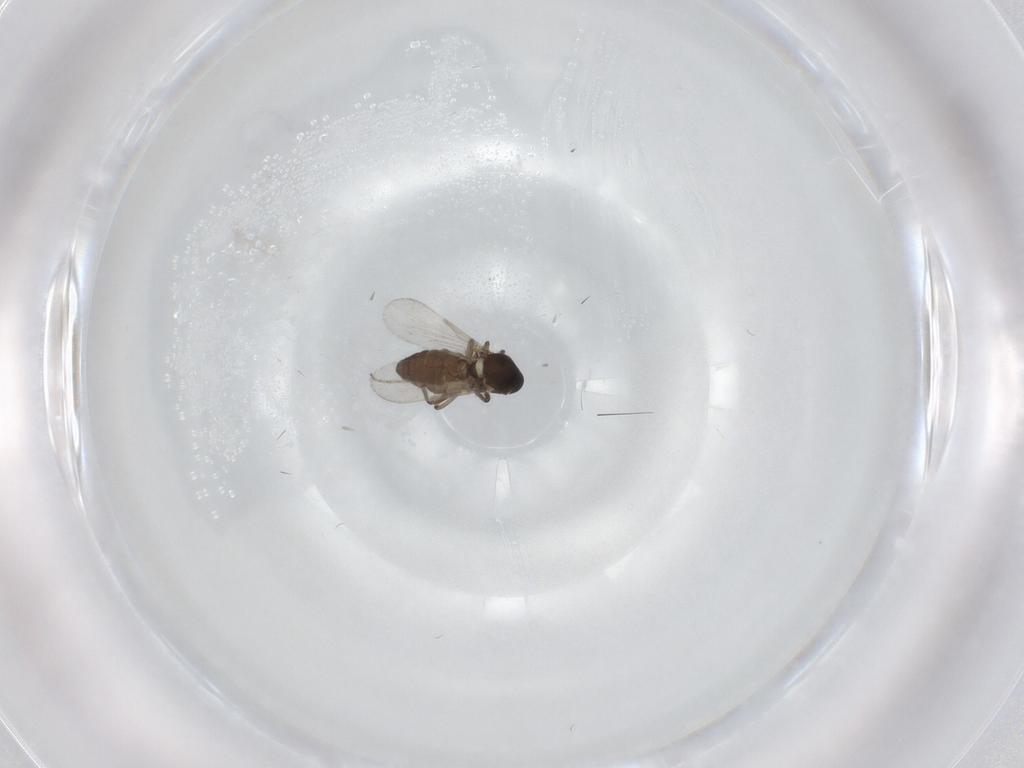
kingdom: Animalia
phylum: Arthropoda
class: Insecta
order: Diptera
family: Ceratopogonidae
